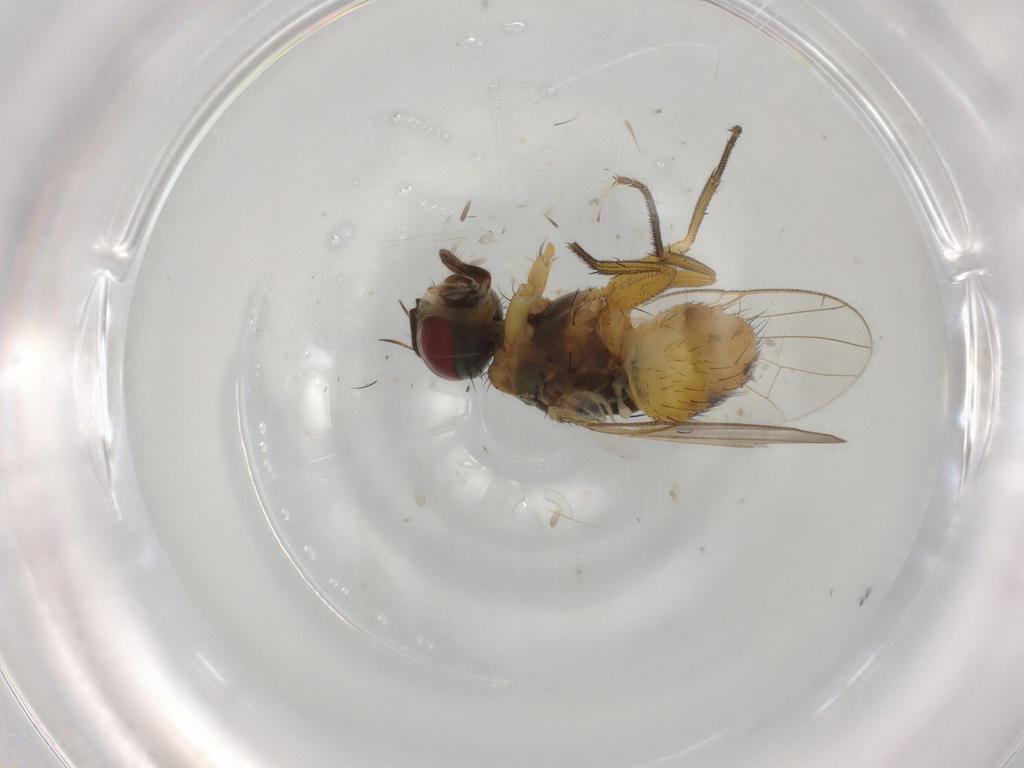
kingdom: Animalia
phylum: Arthropoda
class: Insecta
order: Diptera
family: Muscidae
